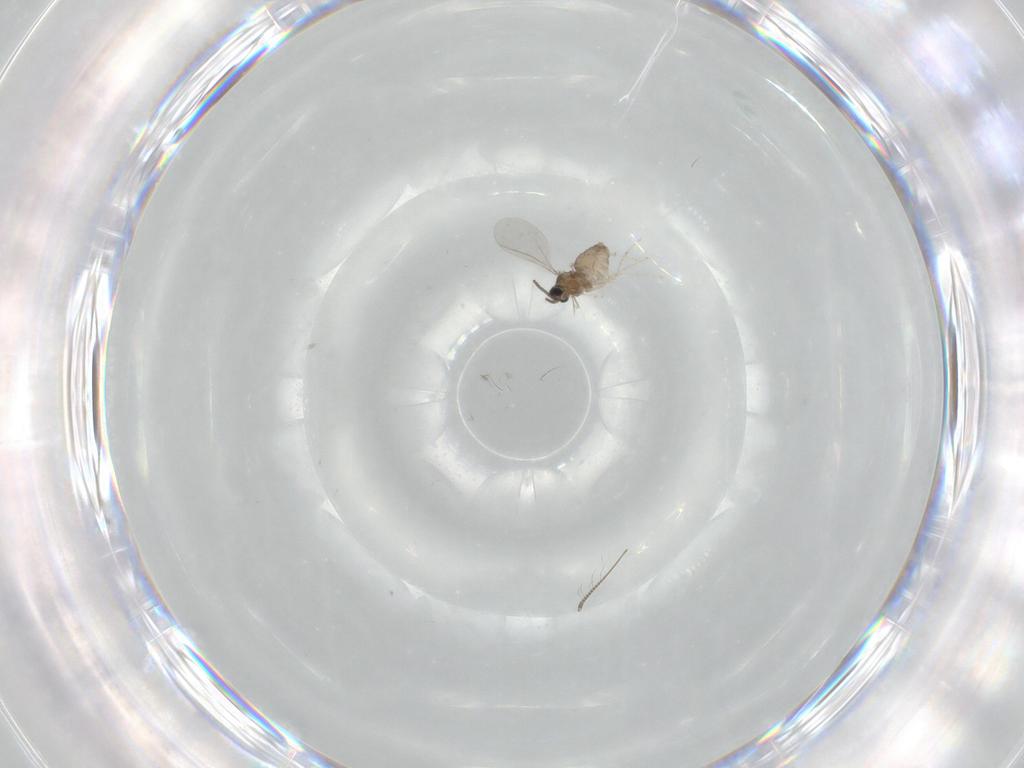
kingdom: Animalia
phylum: Arthropoda
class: Insecta
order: Diptera
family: Cecidomyiidae
